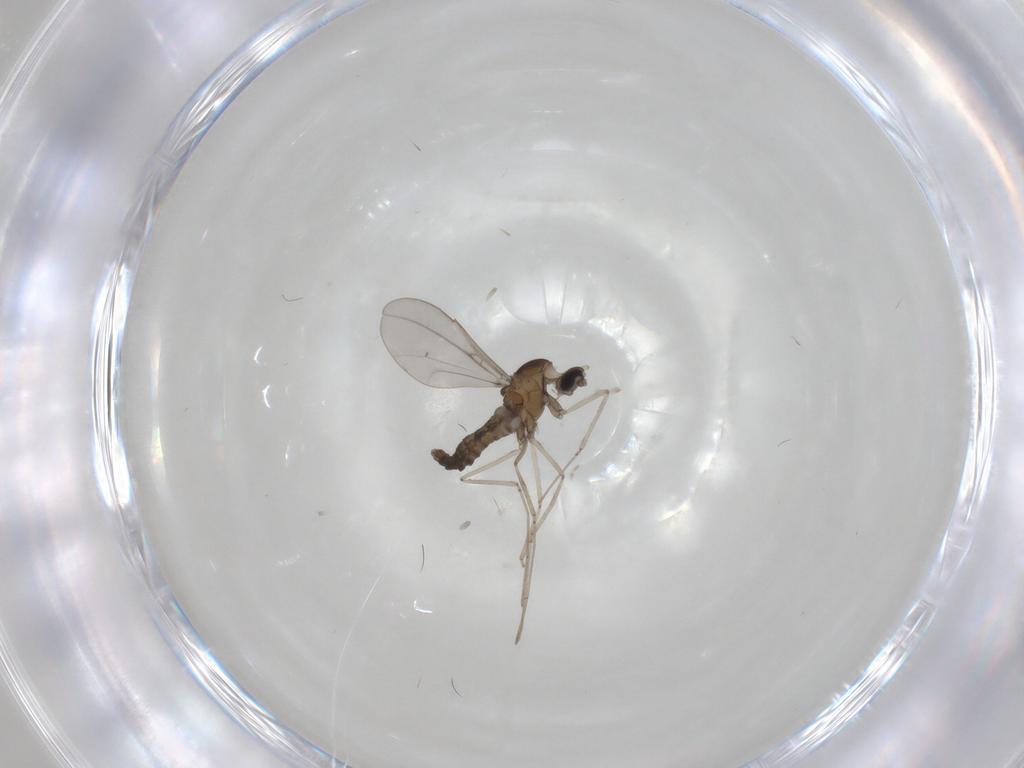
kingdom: Animalia
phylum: Arthropoda
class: Insecta
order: Diptera
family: Cecidomyiidae
